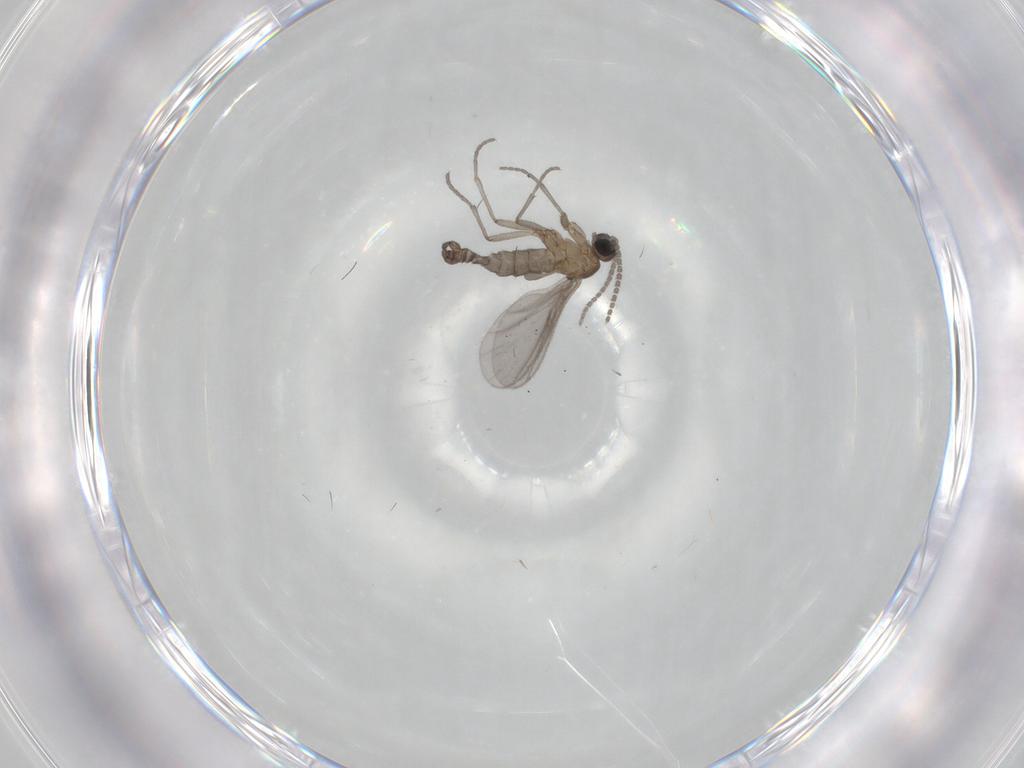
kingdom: Animalia
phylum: Arthropoda
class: Insecta
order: Diptera
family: Sciaridae
